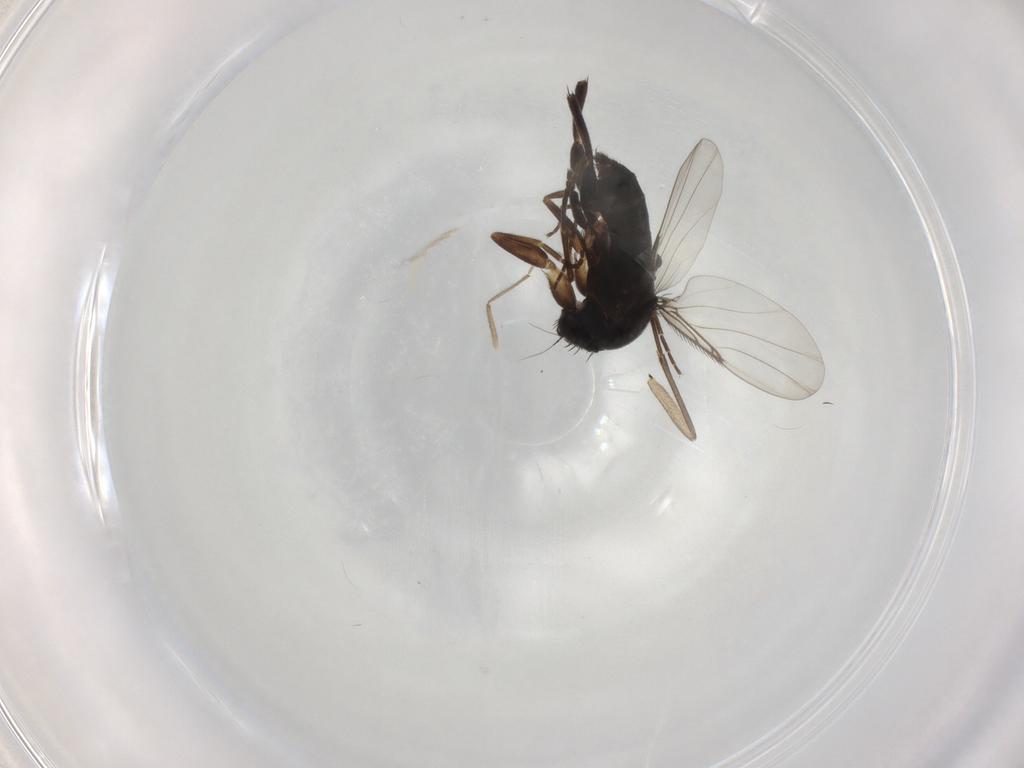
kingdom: Animalia
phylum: Arthropoda
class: Insecta
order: Diptera
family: Phoridae
